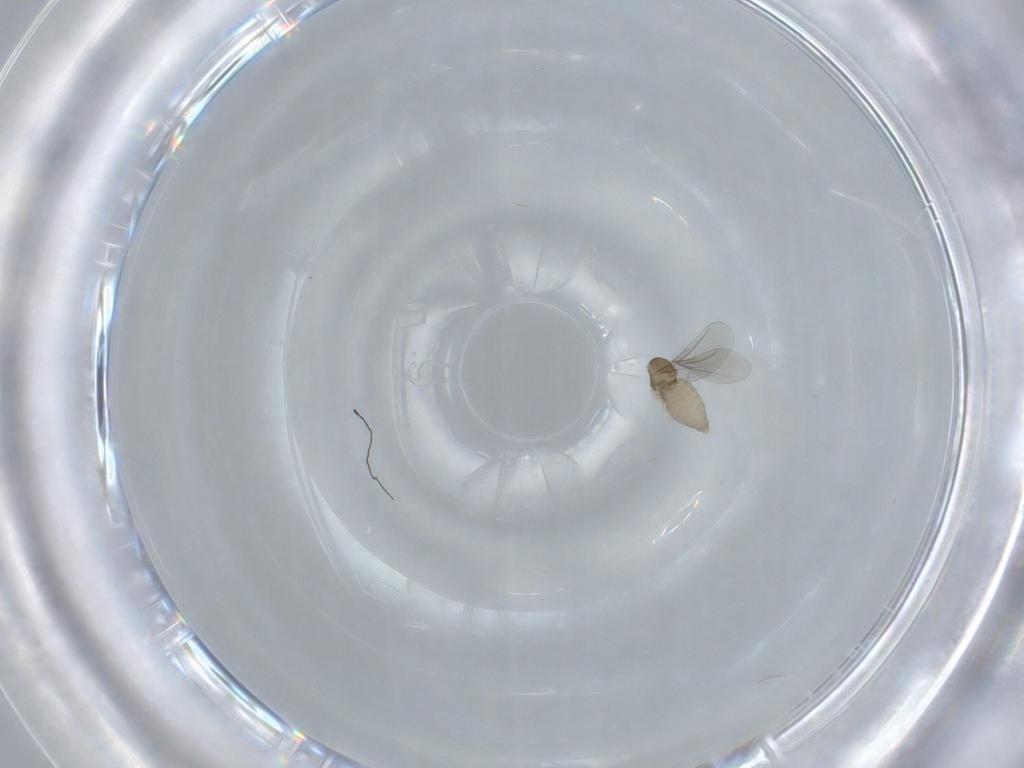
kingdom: Animalia
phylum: Arthropoda
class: Insecta
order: Diptera
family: Cecidomyiidae
